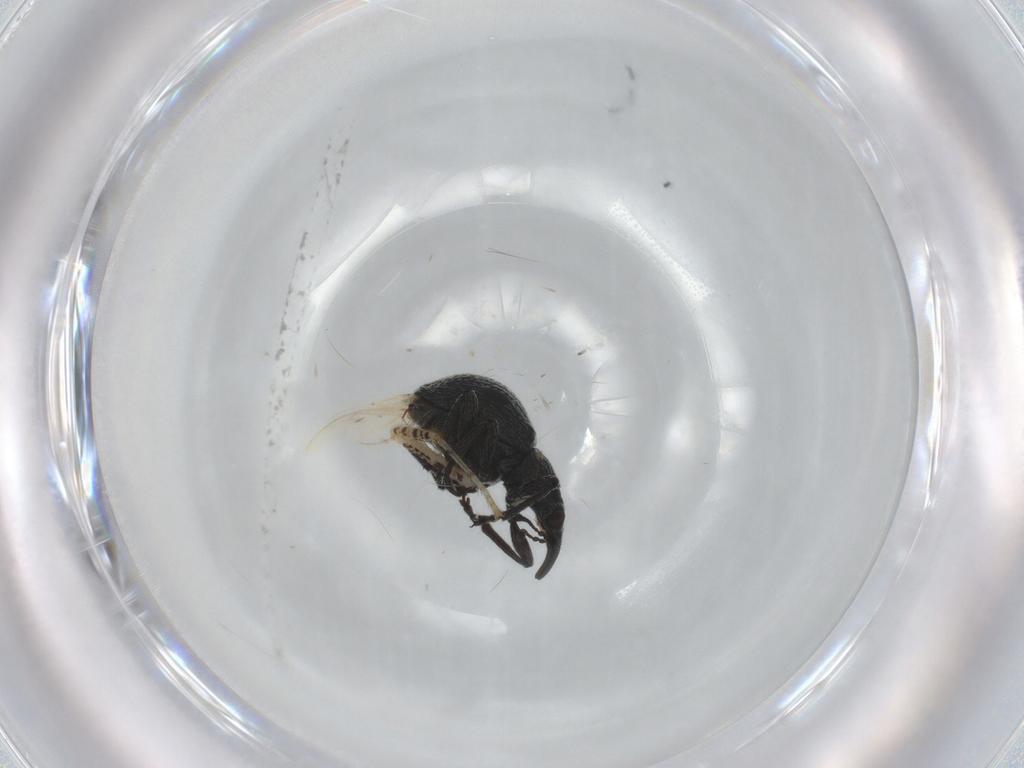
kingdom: Animalia
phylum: Arthropoda
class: Insecta
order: Coleoptera
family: Brentidae
